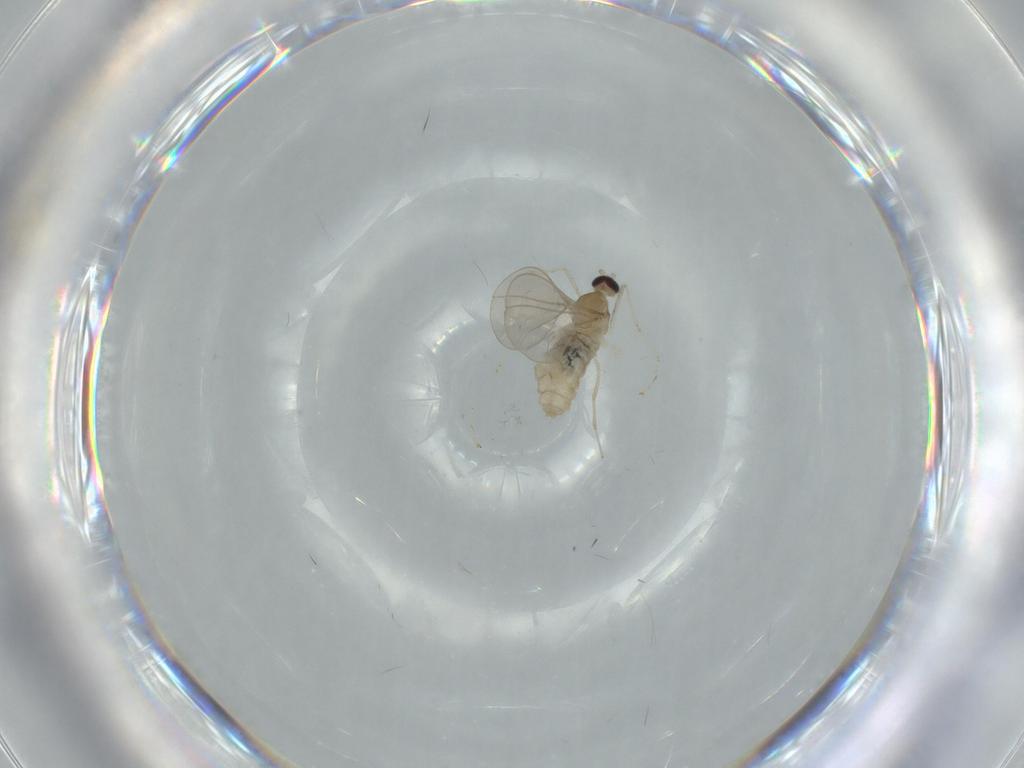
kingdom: Animalia
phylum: Arthropoda
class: Insecta
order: Diptera
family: Cecidomyiidae
